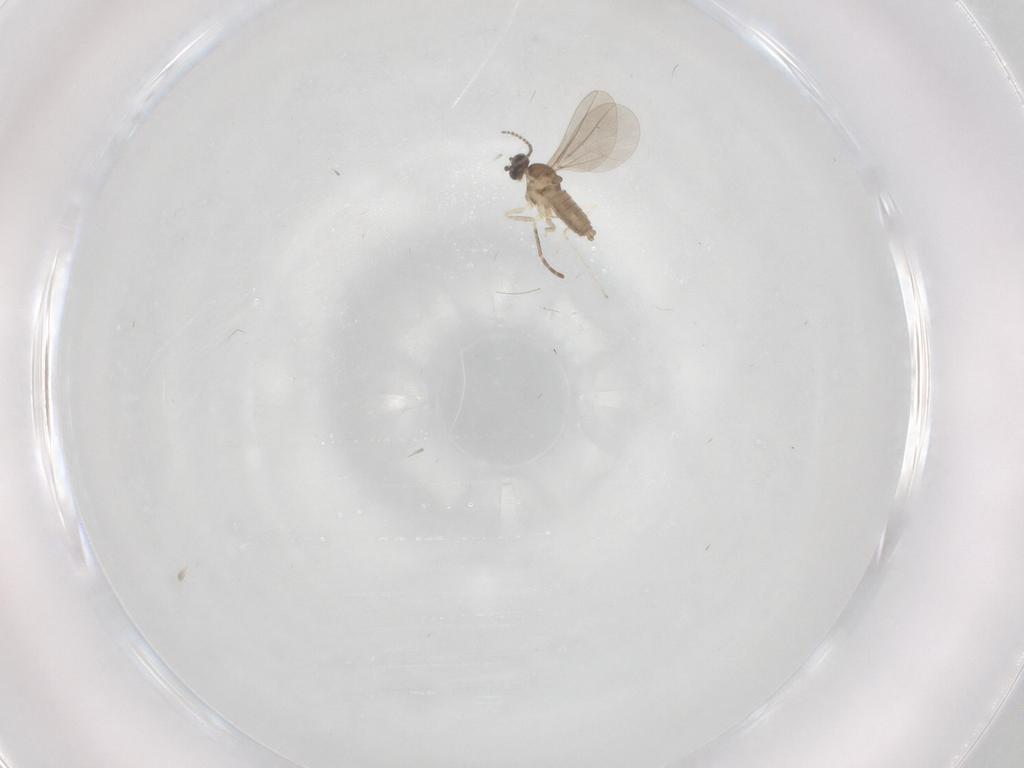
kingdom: Animalia
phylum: Arthropoda
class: Insecta
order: Diptera
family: Cecidomyiidae
